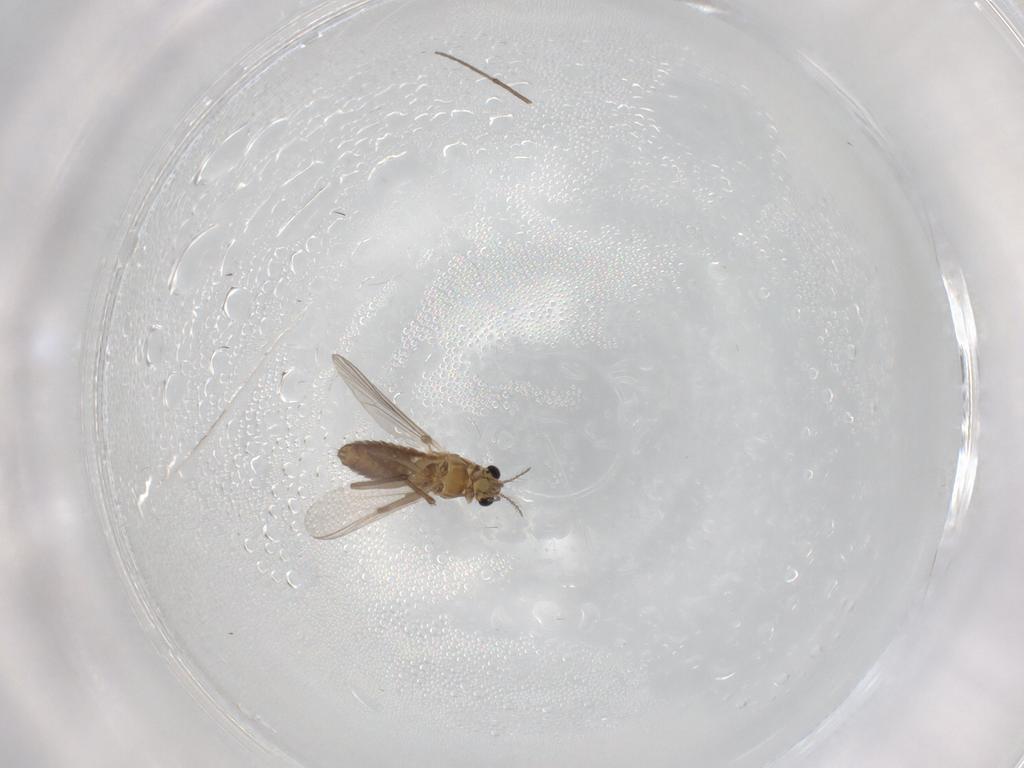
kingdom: Animalia
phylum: Arthropoda
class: Insecta
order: Diptera
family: Chironomidae
